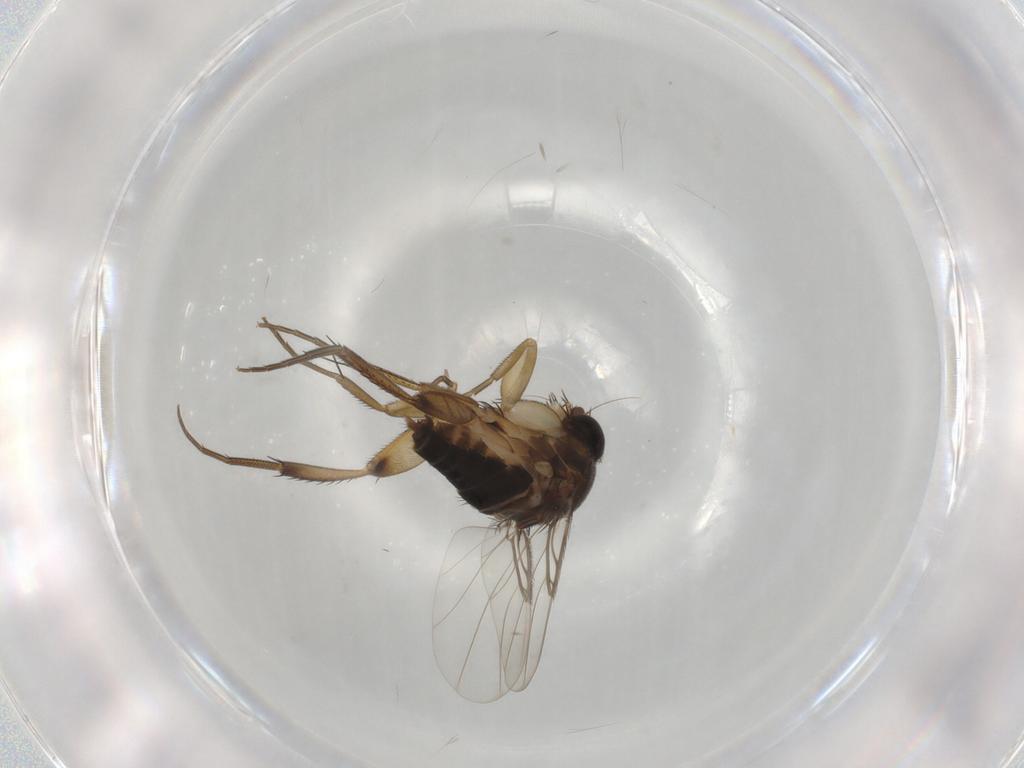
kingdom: Animalia
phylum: Arthropoda
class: Insecta
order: Diptera
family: Phoridae
